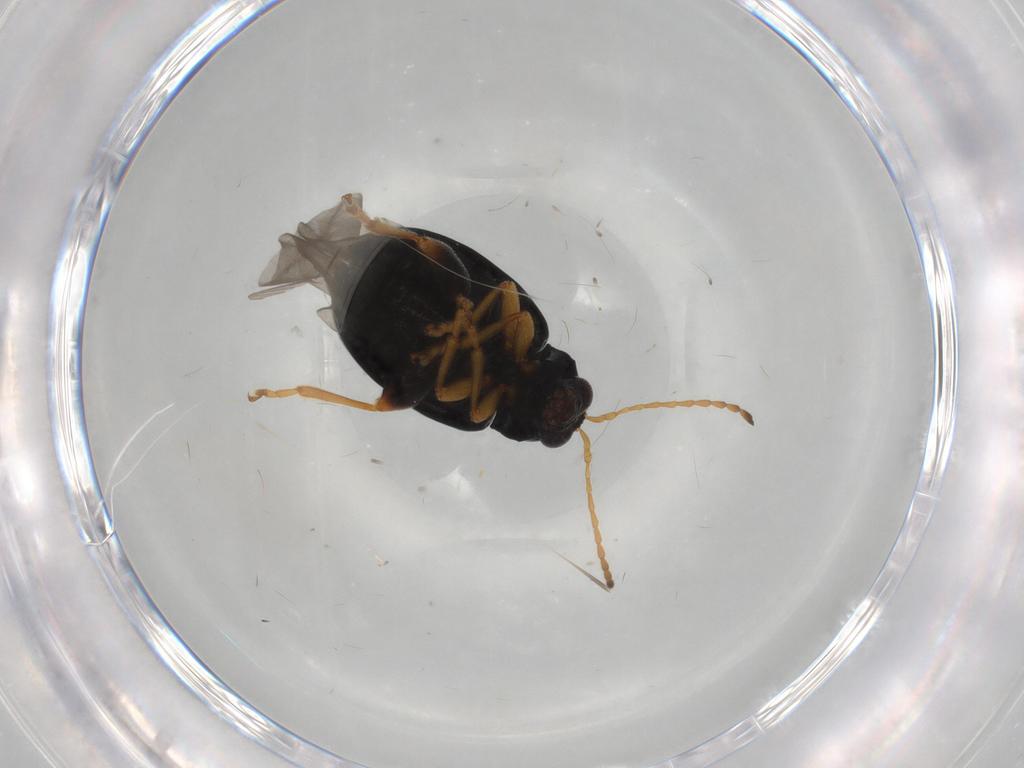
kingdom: Animalia
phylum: Arthropoda
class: Insecta
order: Coleoptera
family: Chrysomelidae
